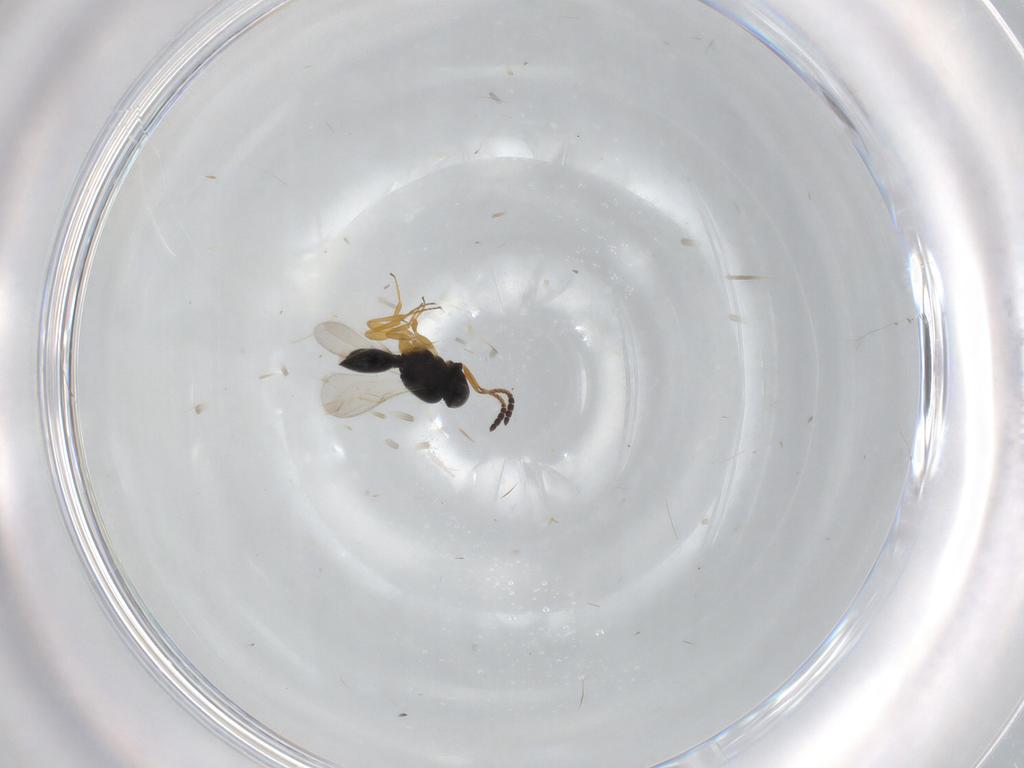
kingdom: Animalia
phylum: Arthropoda
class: Insecta
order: Hymenoptera
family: Scelionidae
